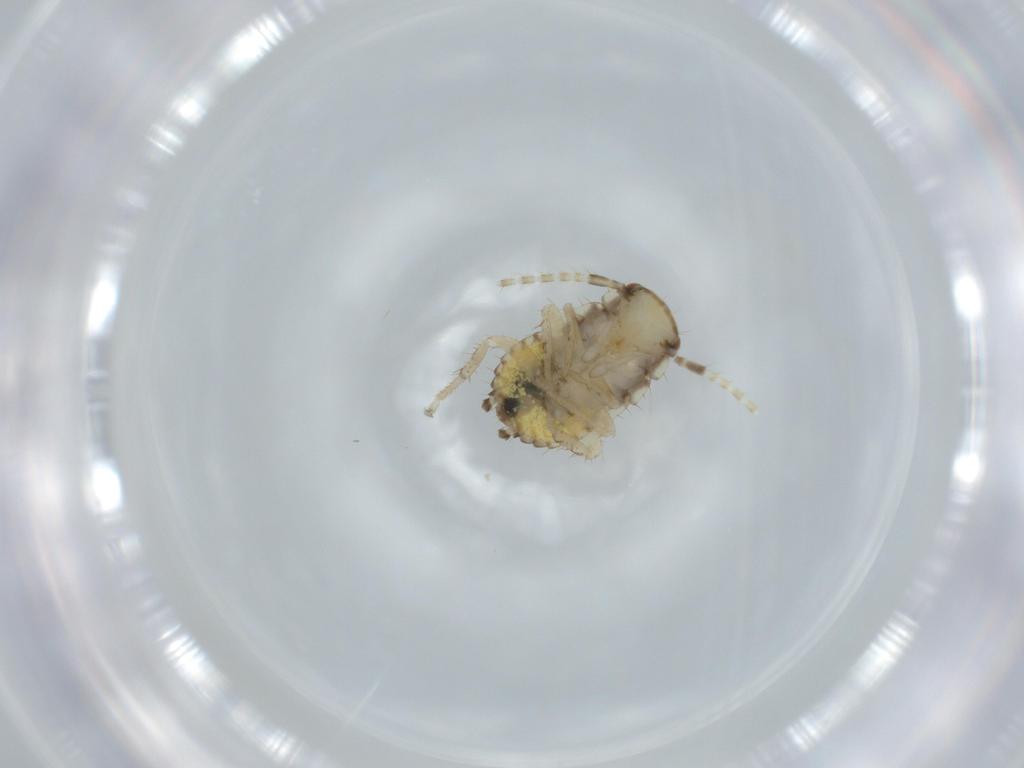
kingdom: Animalia
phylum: Arthropoda
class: Insecta
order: Blattodea
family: Ectobiidae
